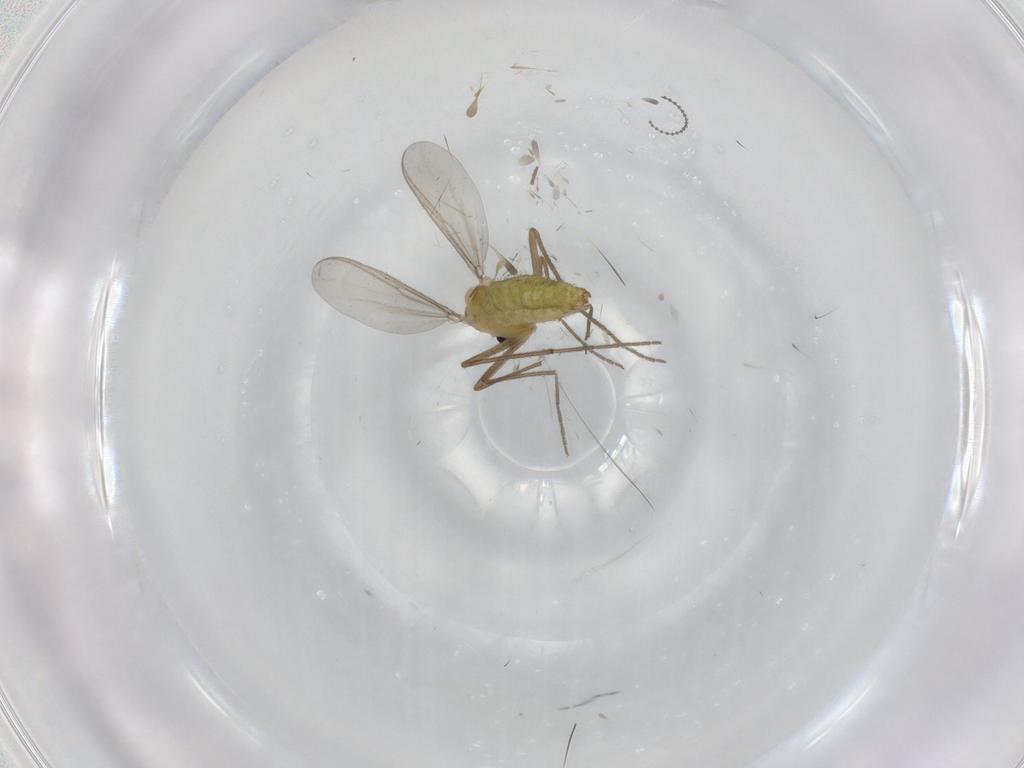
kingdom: Animalia
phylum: Arthropoda
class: Insecta
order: Diptera
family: Chironomidae
